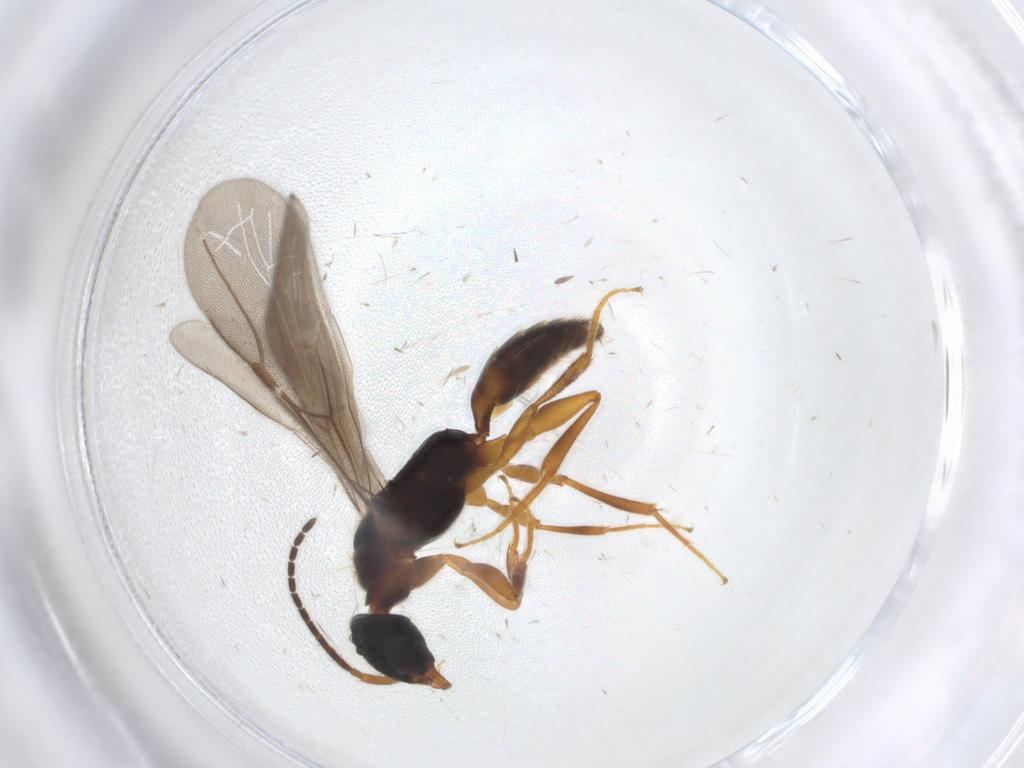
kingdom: Animalia
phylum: Arthropoda
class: Insecta
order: Hymenoptera
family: Bethylidae
